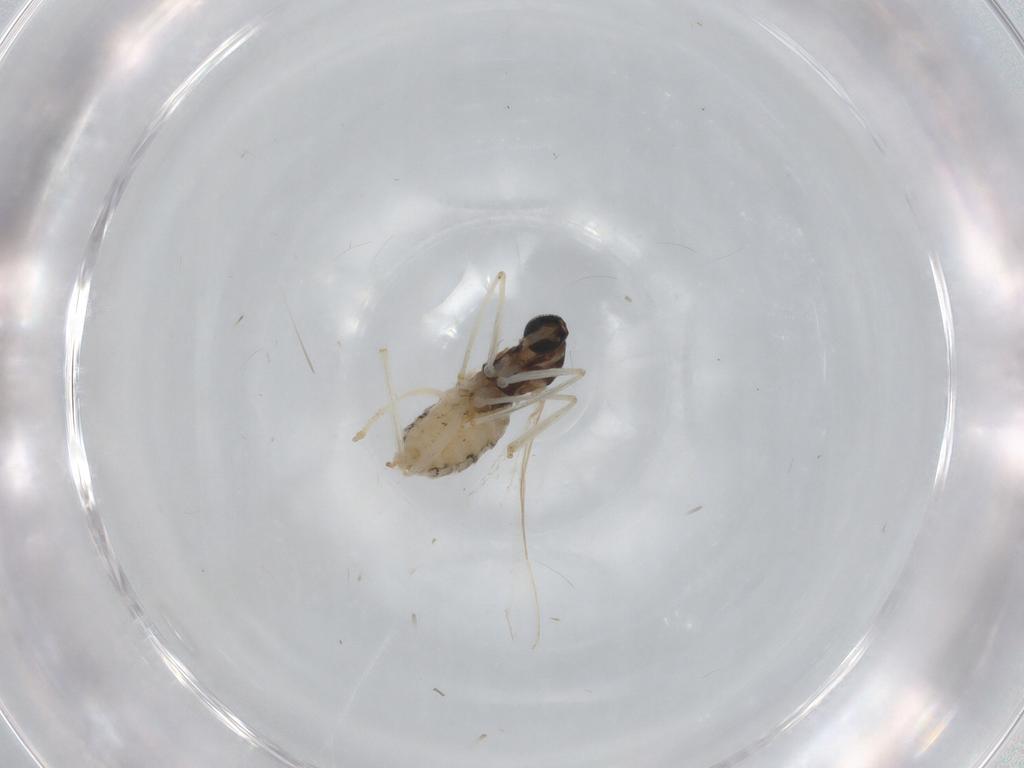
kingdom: Animalia
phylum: Arthropoda
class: Insecta
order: Diptera
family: Cecidomyiidae
